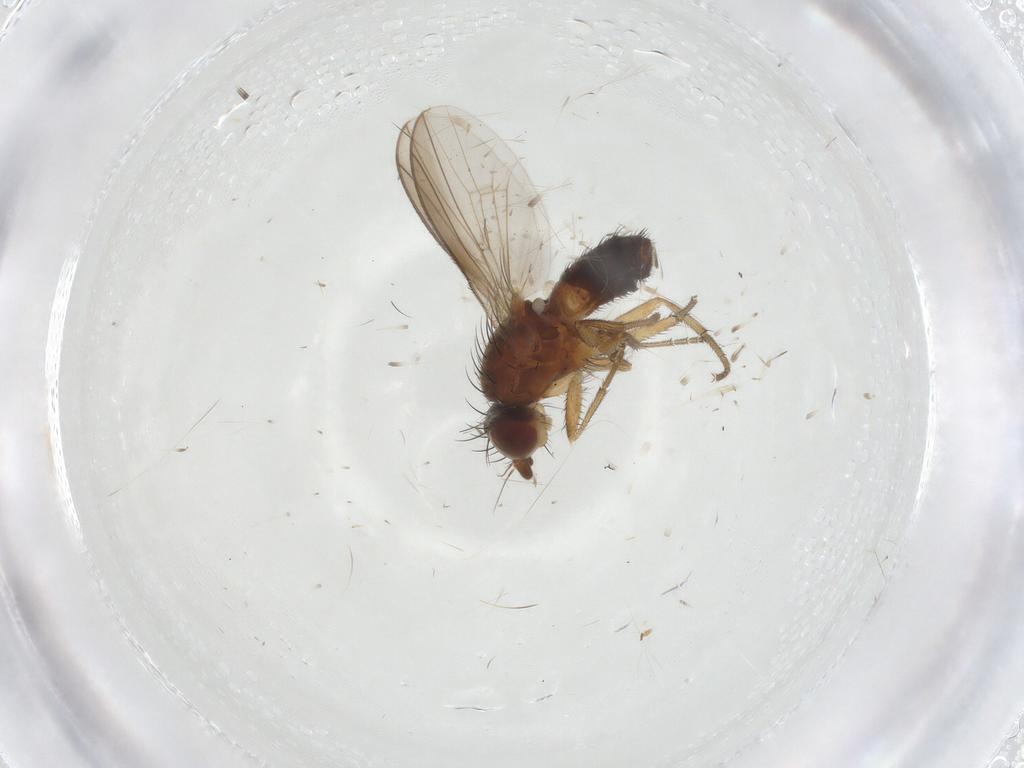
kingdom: Animalia
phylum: Arthropoda
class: Insecta
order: Diptera
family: Heleomyzidae
